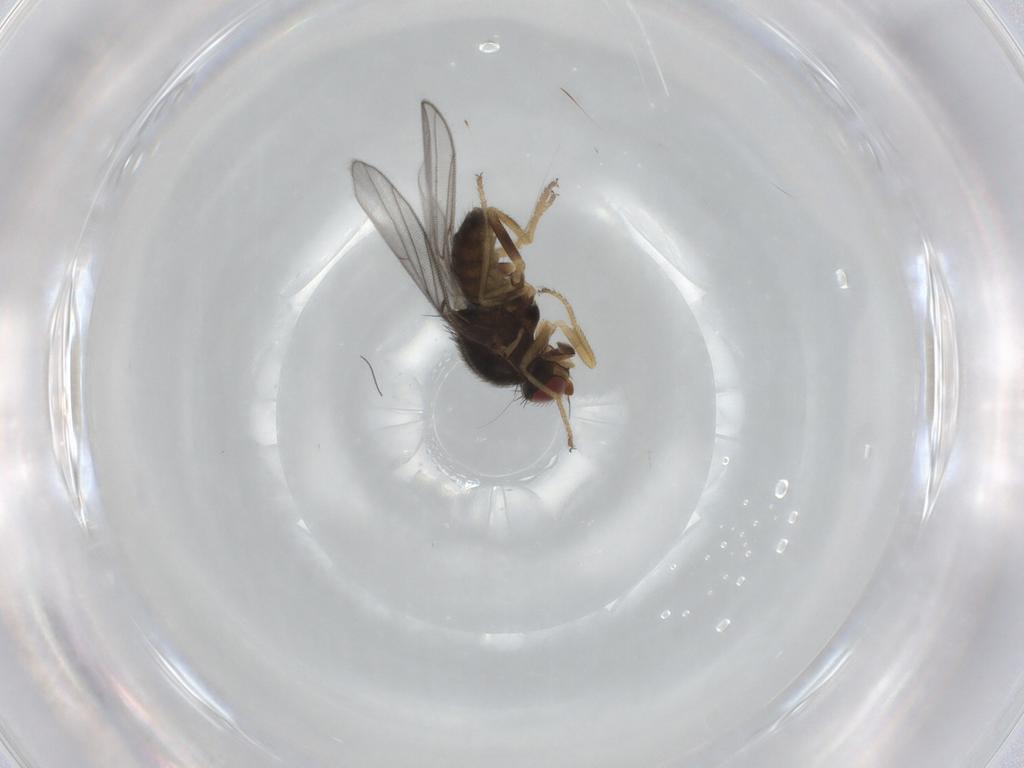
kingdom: Animalia
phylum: Arthropoda
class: Insecta
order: Diptera
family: Chloropidae
